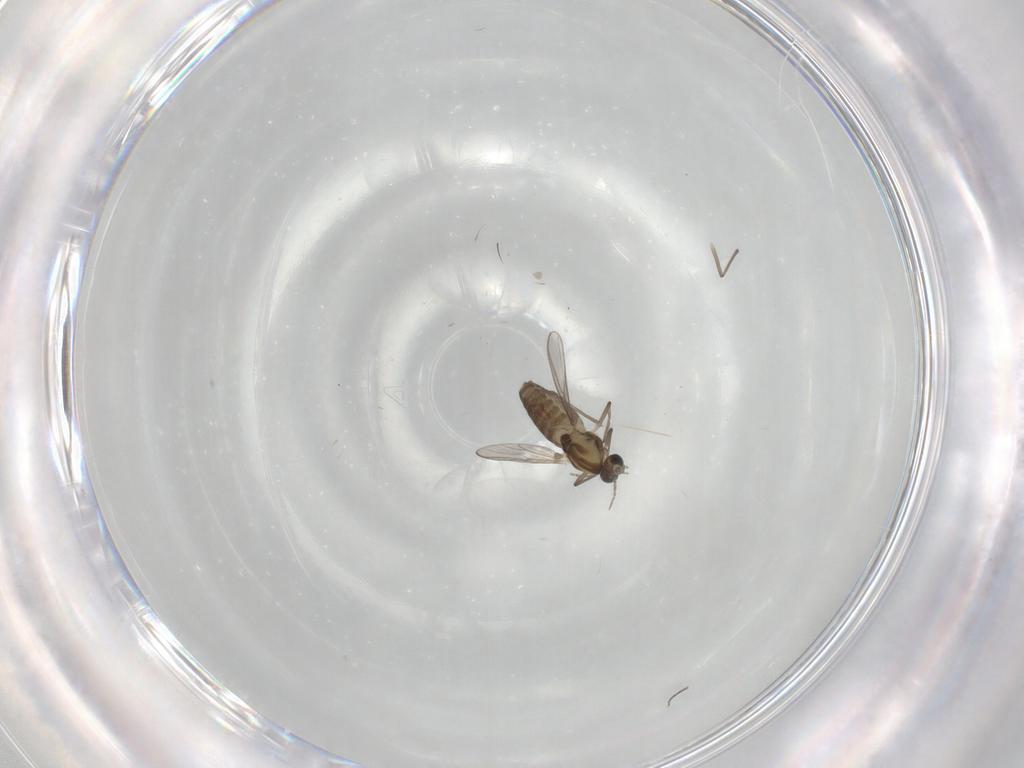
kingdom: Animalia
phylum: Arthropoda
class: Insecta
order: Diptera
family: Chironomidae
